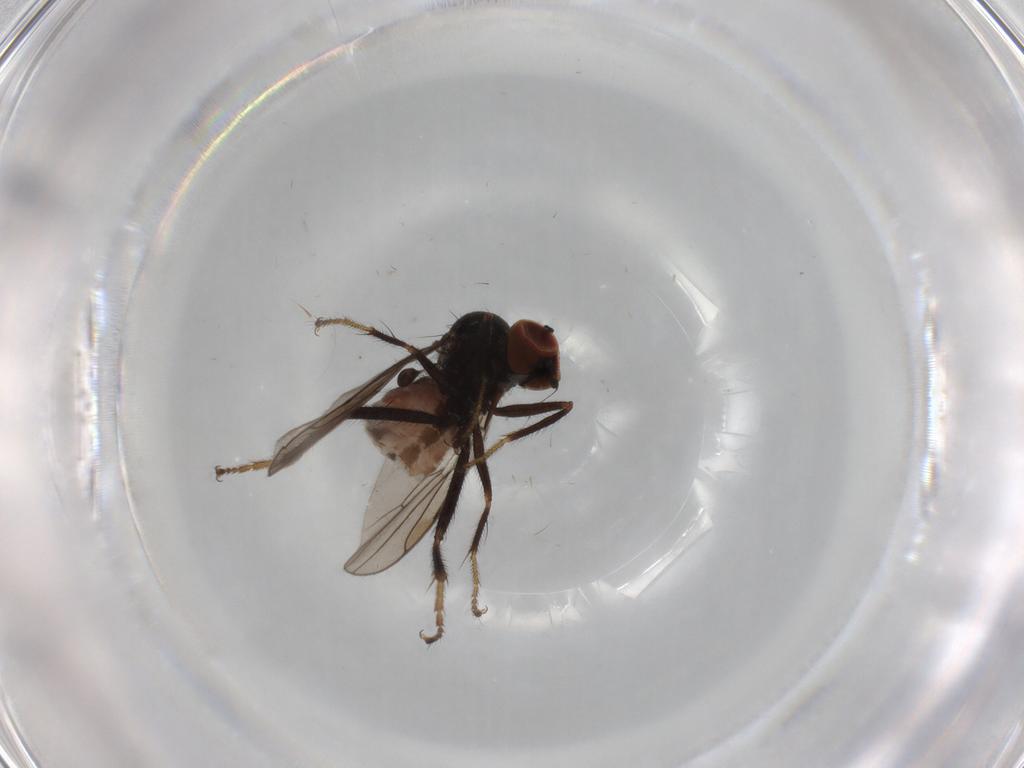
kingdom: Animalia
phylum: Arthropoda
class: Insecta
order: Diptera
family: Hybotidae
